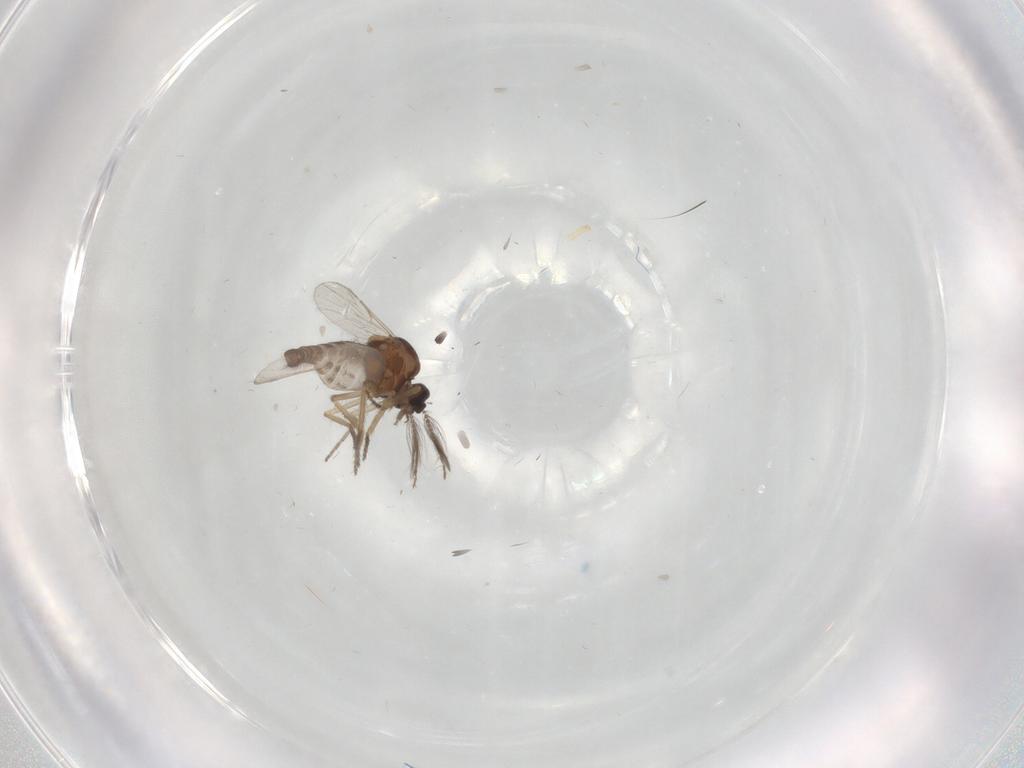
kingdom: Animalia
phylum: Arthropoda
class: Insecta
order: Diptera
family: Ceratopogonidae
